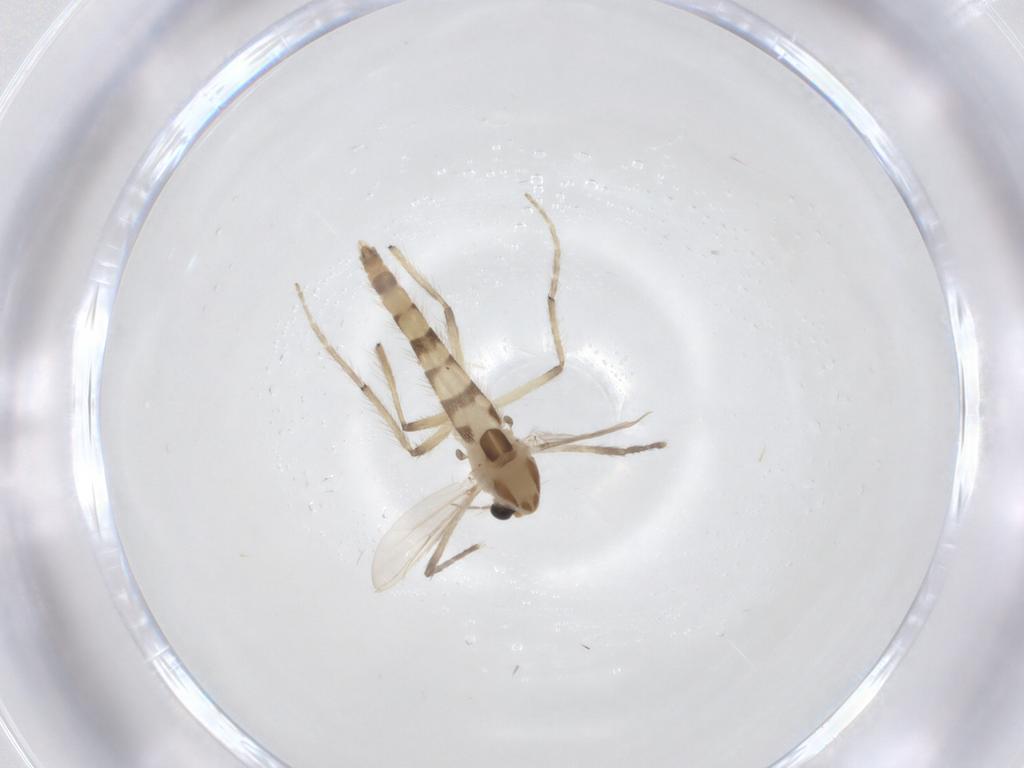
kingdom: Animalia
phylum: Arthropoda
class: Insecta
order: Diptera
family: Chironomidae
